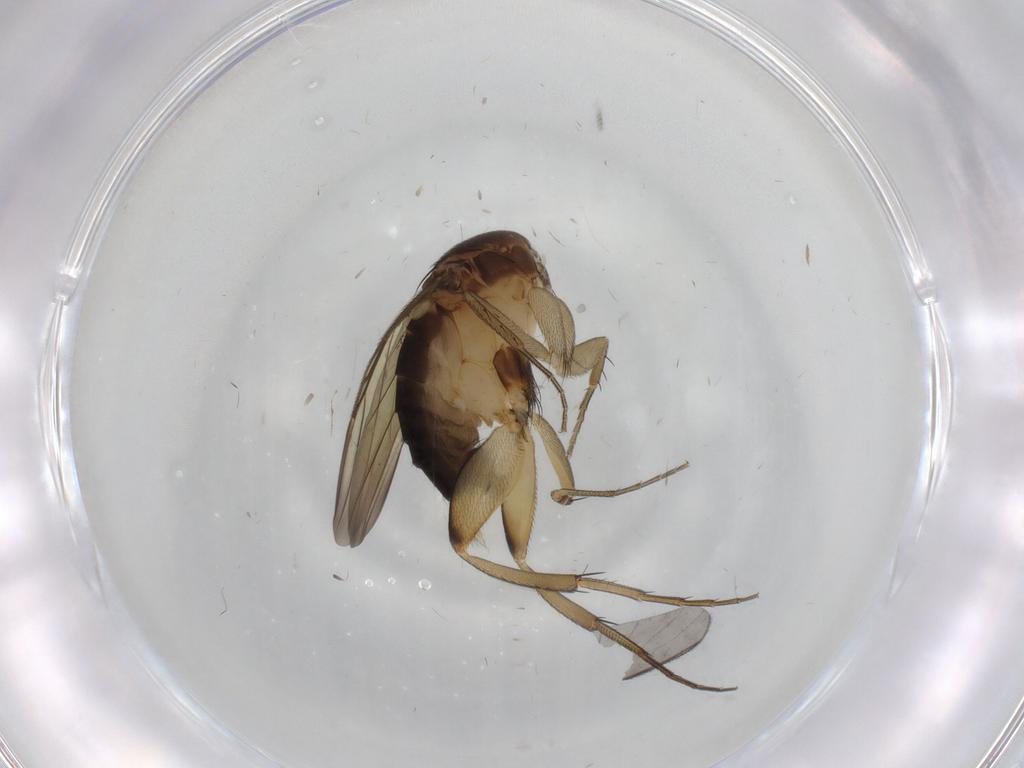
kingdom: Animalia
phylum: Arthropoda
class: Insecta
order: Diptera
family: Phoridae
